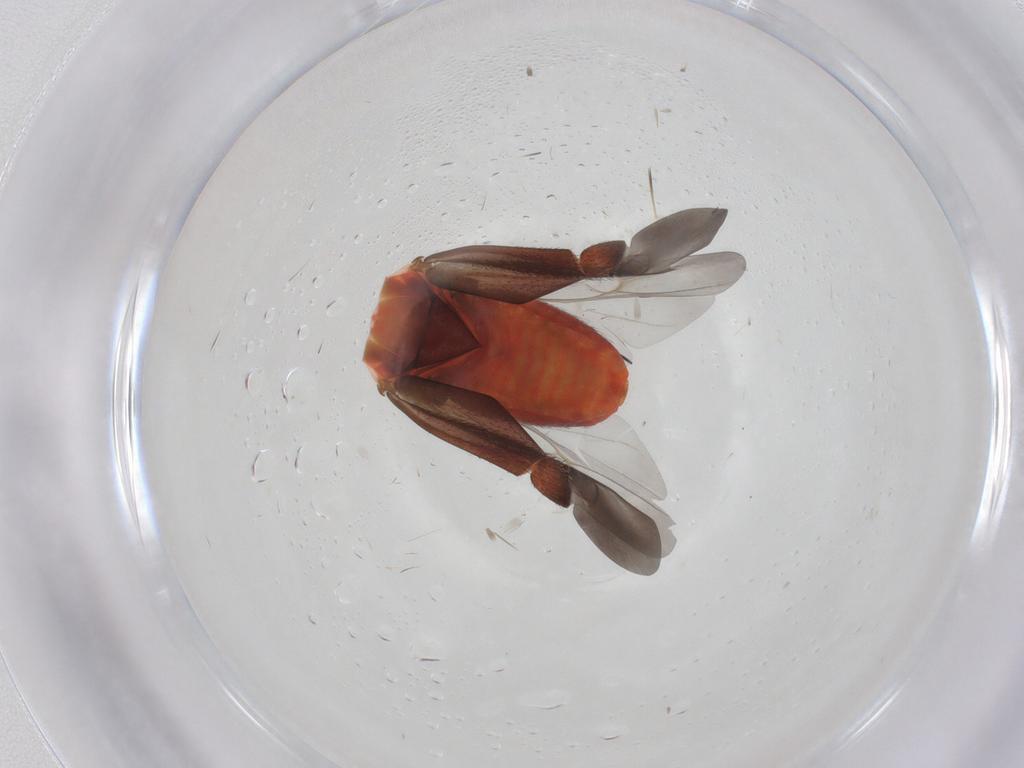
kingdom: Animalia
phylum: Arthropoda
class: Insecta
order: Hemiptera
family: Miridae
